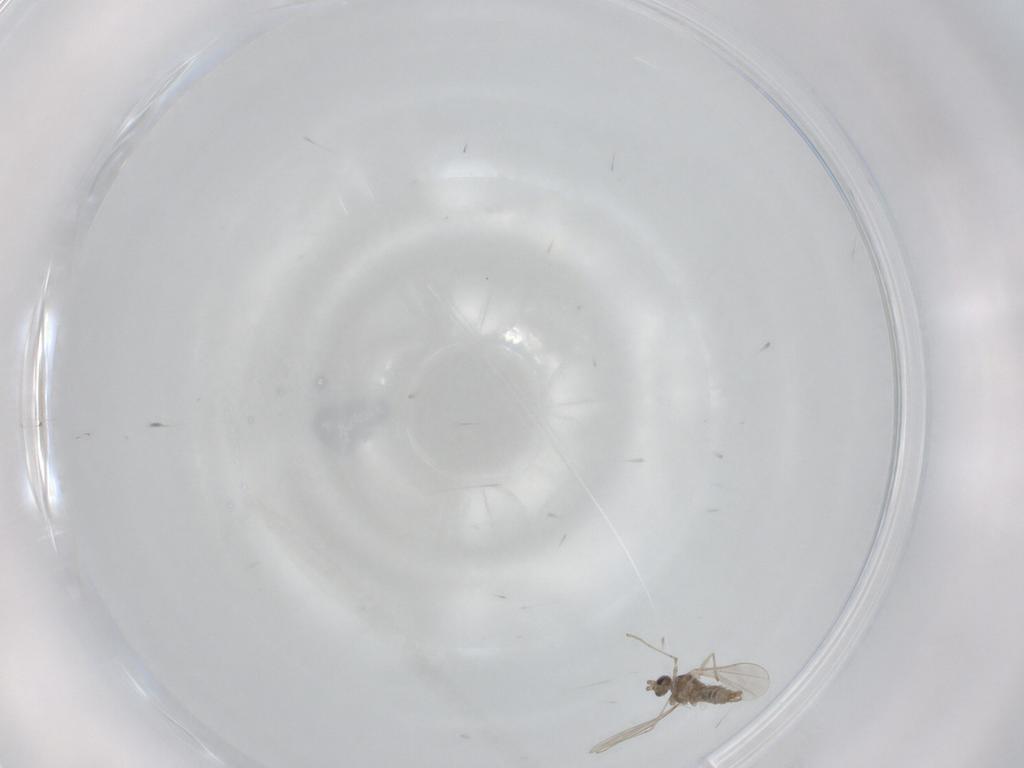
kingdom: Animalia
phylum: Arthropoda
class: Insecta
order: Diptera
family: Cecidomyiidae
